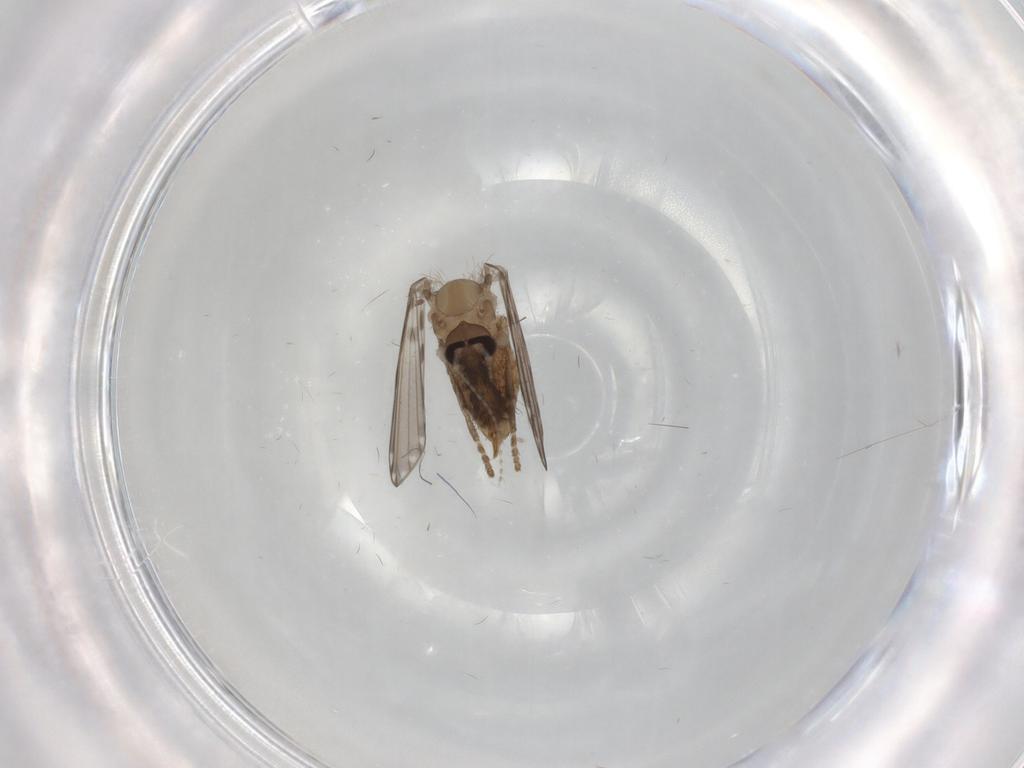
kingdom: Animalia
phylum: Arthropoda
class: Insecta
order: Diptera
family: Psychodidae
